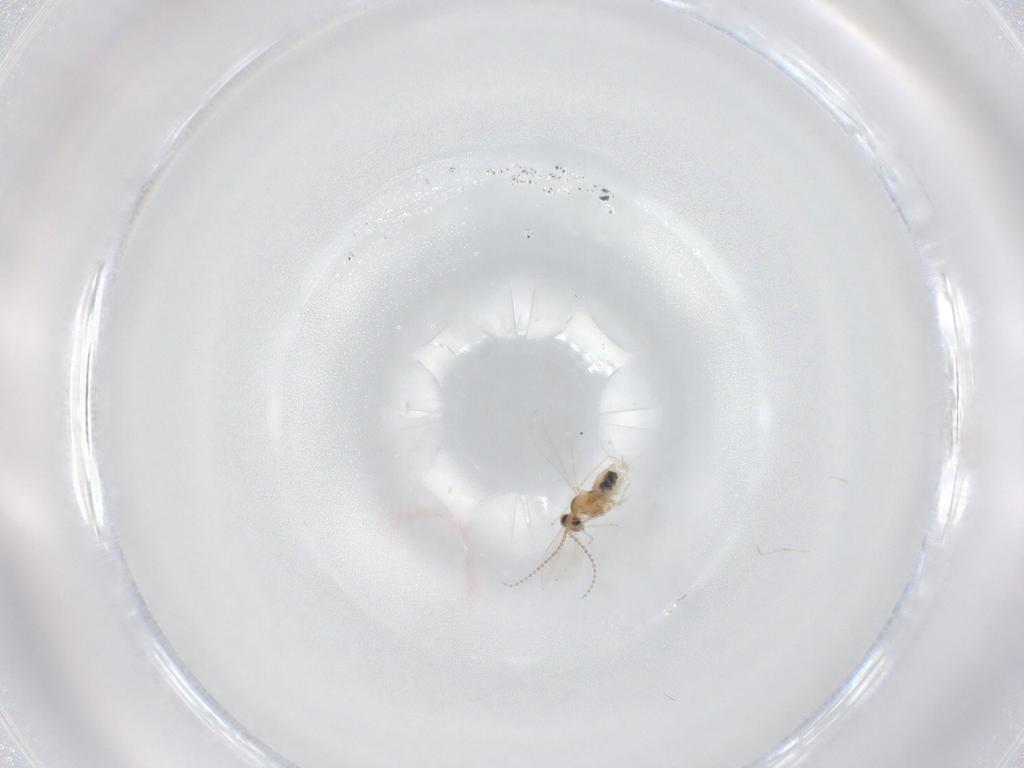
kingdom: Animalia
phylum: Arthropoda
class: Insecta
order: Diptera
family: Cecidomyiidae
